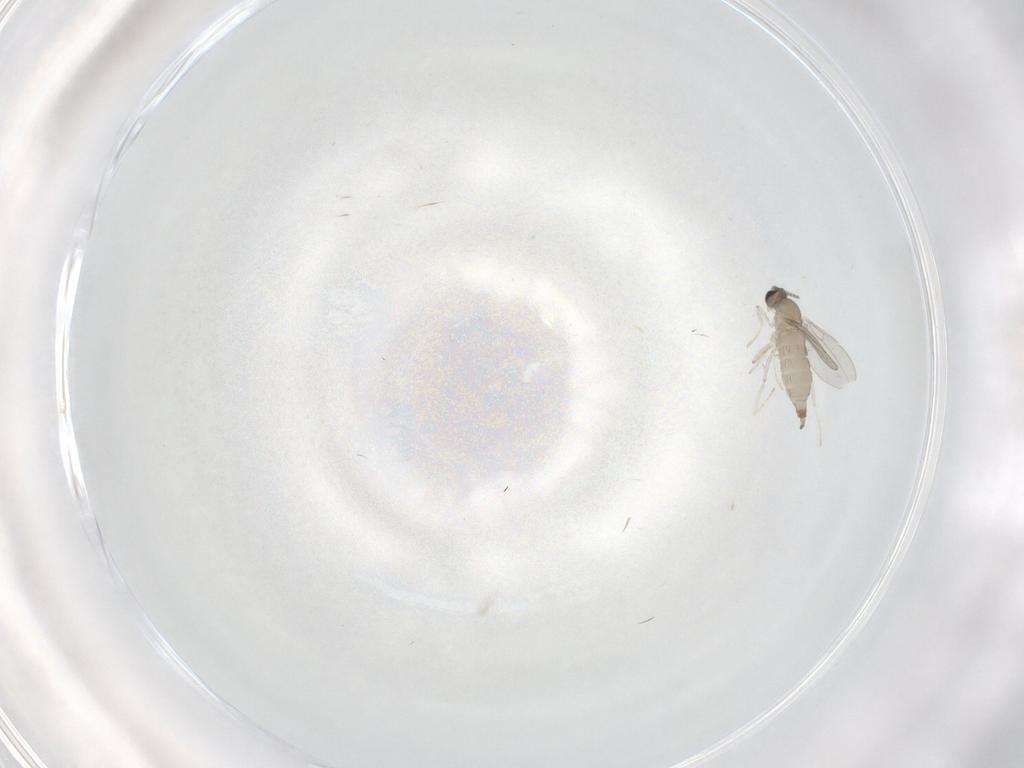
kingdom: Animalia
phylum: Arthropoda
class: Insecta
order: Diptera
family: Cecidomyiidae
